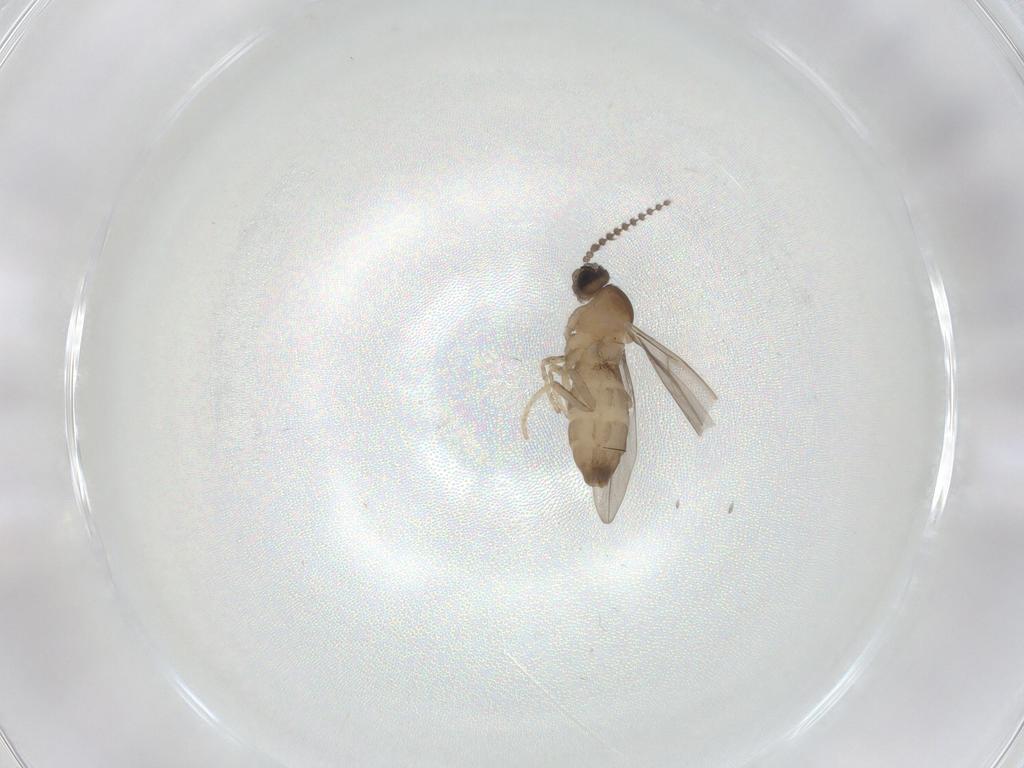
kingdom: Animalia
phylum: Arthropoda
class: Insecta
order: Diptera
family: Cecidomyiidae
